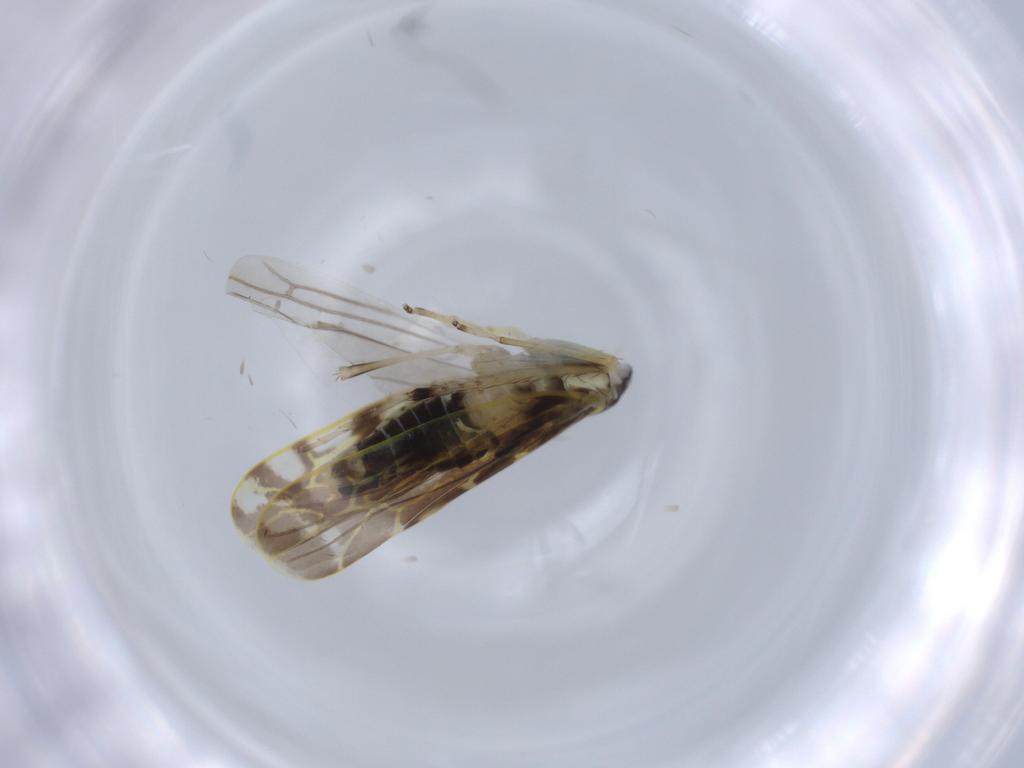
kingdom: Animalia
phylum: Arthropoda
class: Insecta
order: Hemiptera
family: Cicadellidae
